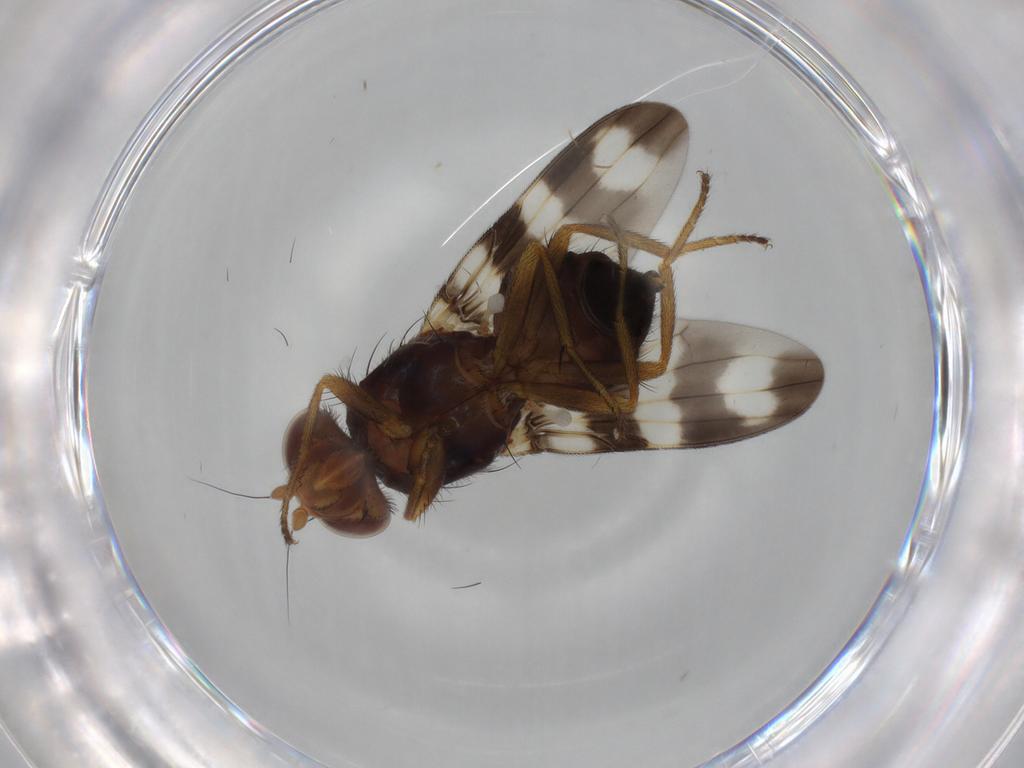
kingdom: Animalia
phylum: Arthropoda
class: Insecta
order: Diptera
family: Ulidiidae
